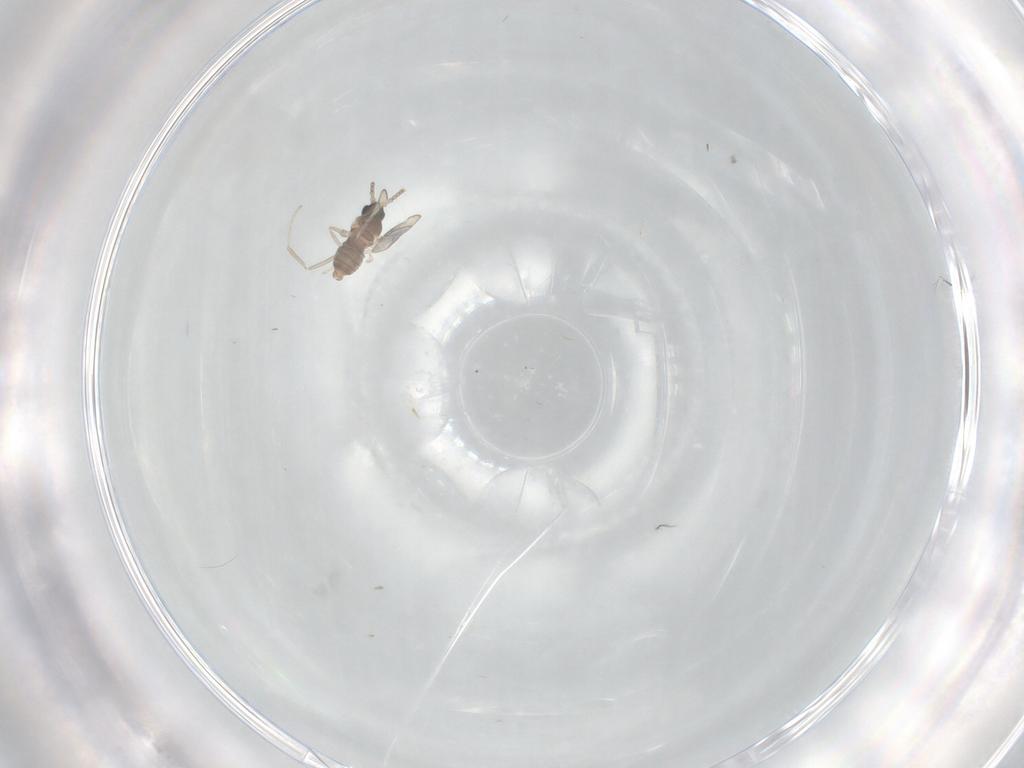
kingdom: Animalia
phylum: Arthropoda
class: Insecta
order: Diptera
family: Cecidomyiidae
